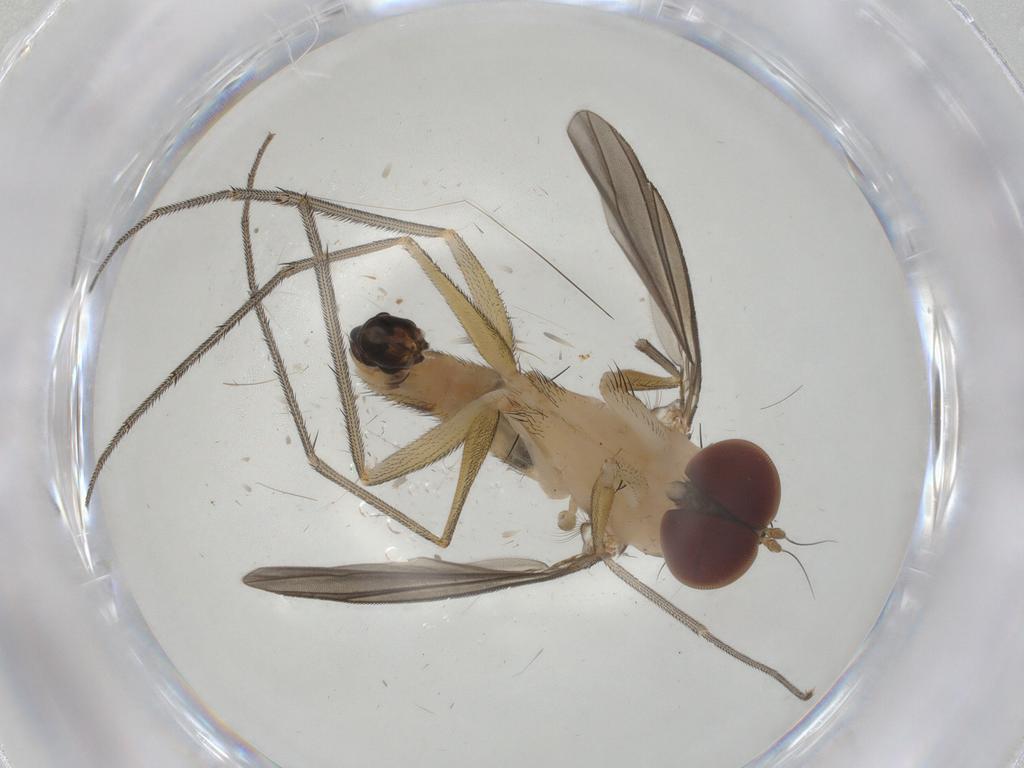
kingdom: Animalia
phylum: Arthropoda
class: Insecta
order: Diptera
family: Dolichopodidae
